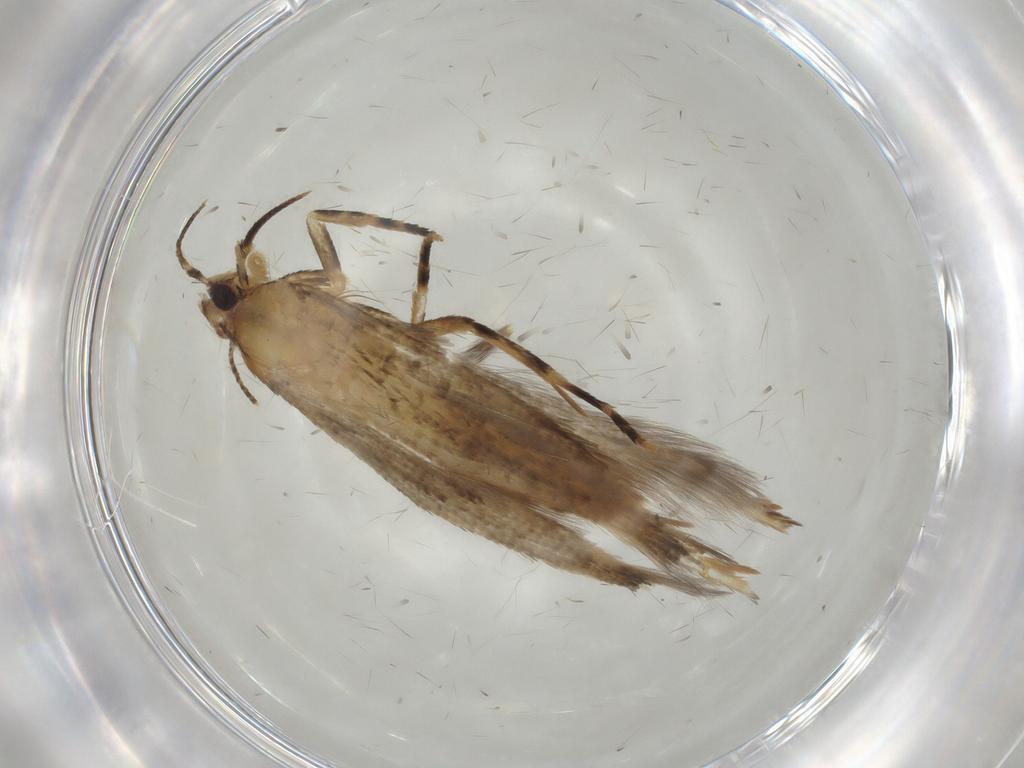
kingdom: Animalia
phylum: Arthropoda
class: Insecta
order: Lepidoptera
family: Cosmopterigidae
